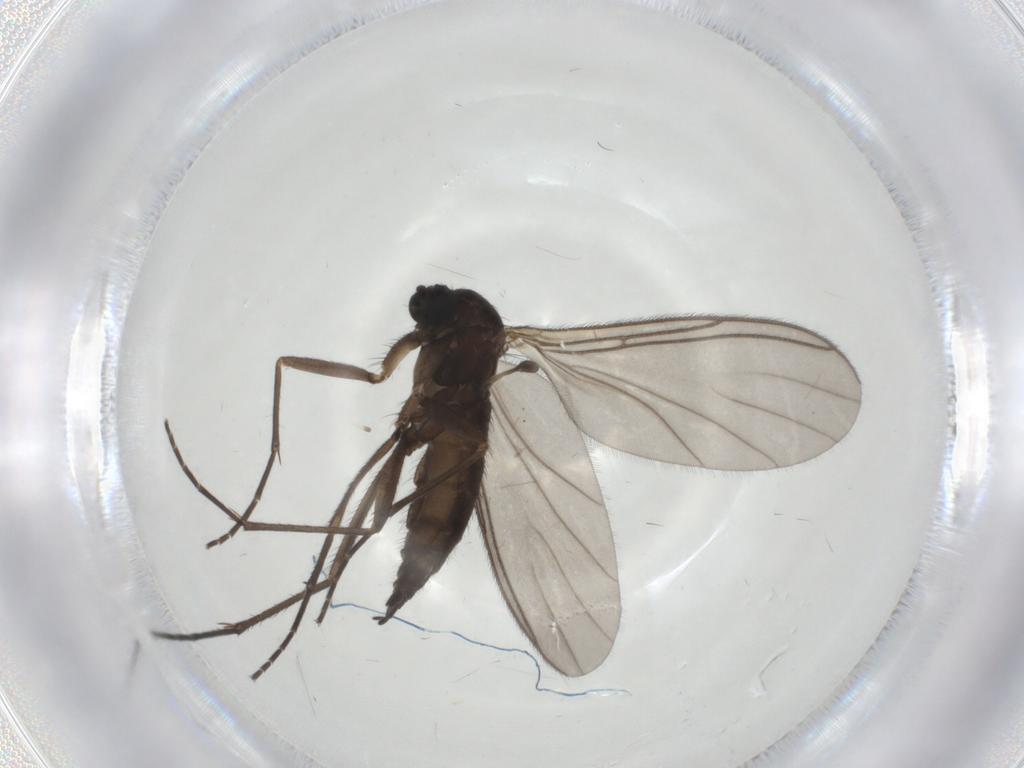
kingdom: Animalia
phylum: Arthropoda
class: Insecta
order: Diptera
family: Sciaridae
